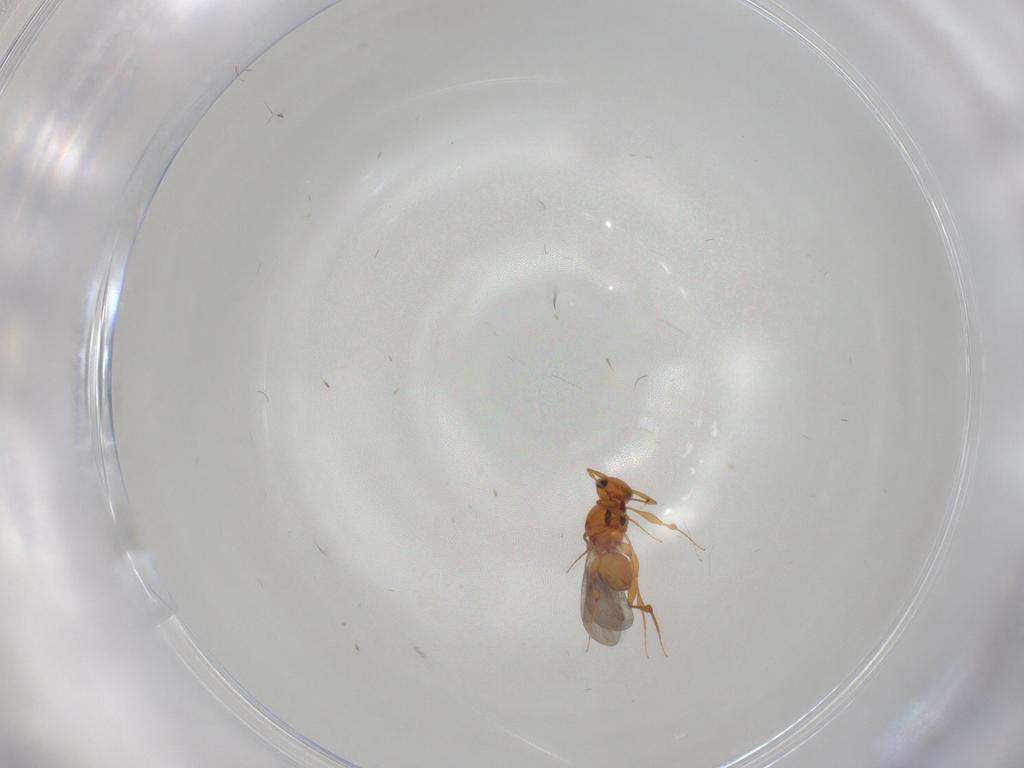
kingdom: Animalia
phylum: Arthropoda
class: Insecta
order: Hymenoptera
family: Platygastridae
